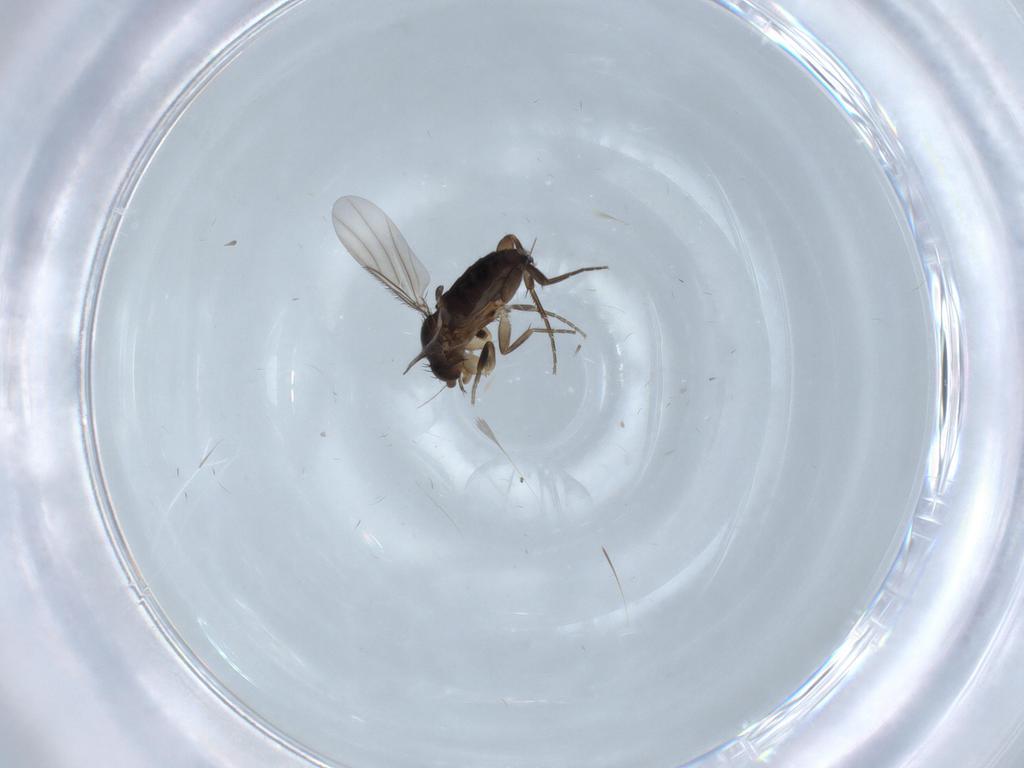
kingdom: Animalia
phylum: Arthropoda
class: Insecta
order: Diptera
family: Phoridae
